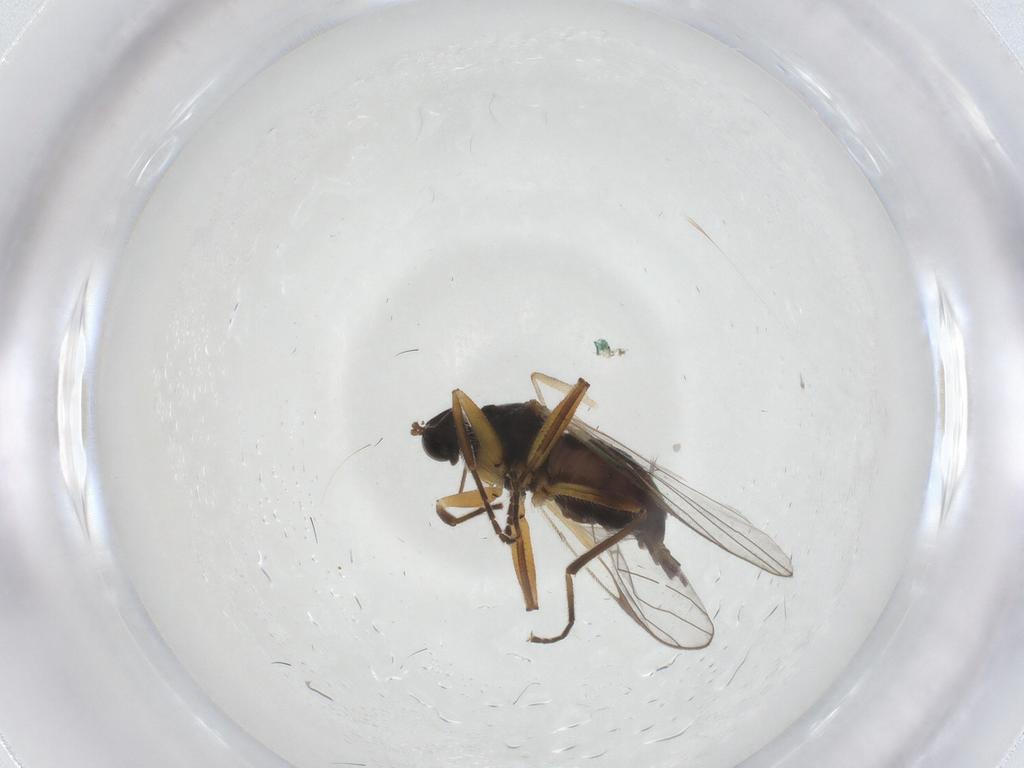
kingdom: Animalia
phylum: Arthropoda
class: Insecta
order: Diptera
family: Hybotidae
